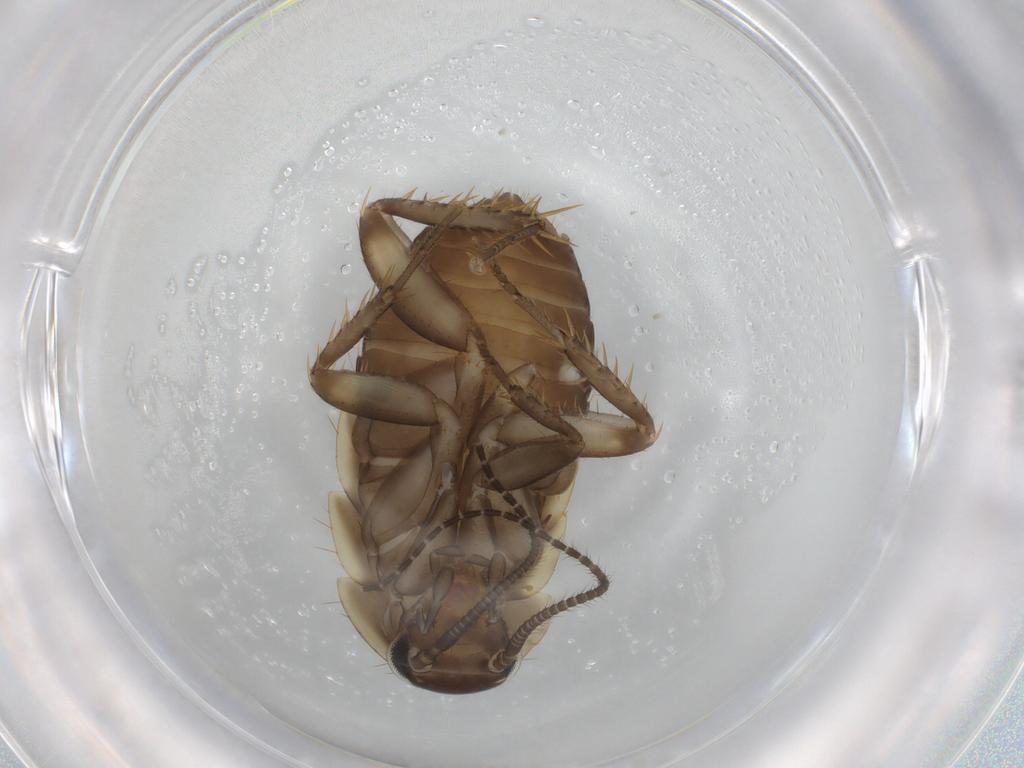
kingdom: Animalia
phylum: Arthropoda
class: Insecta
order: Blattodea
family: Ectobiidae
